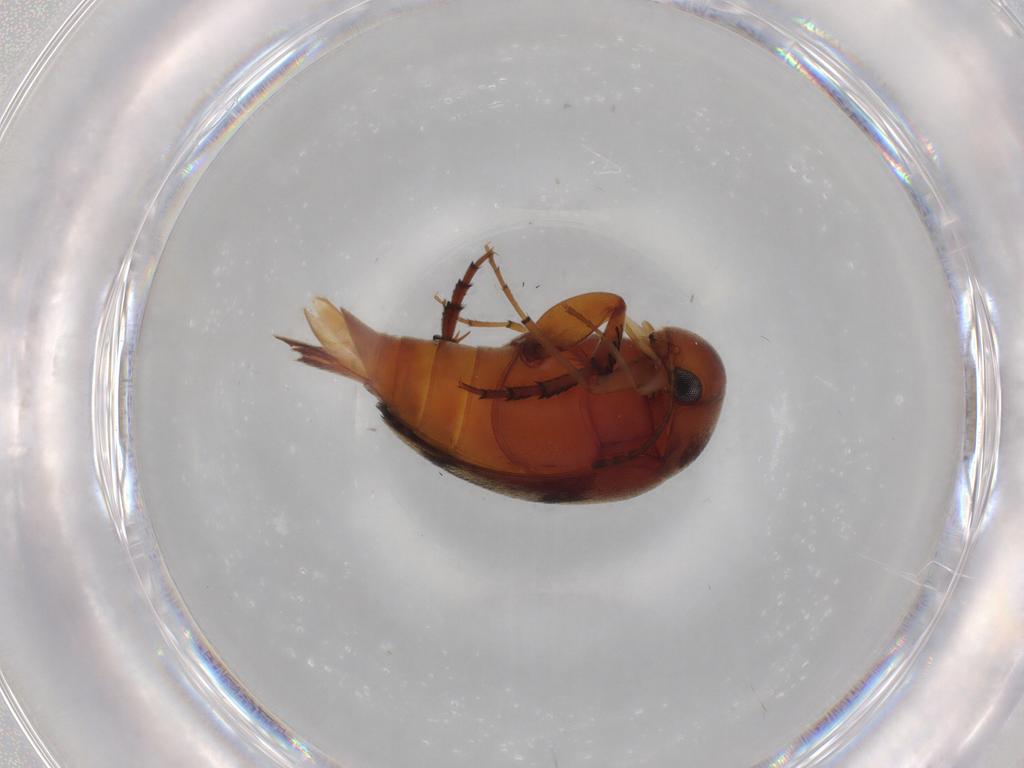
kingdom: Animalia
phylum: Arthropoda
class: Insecta
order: Coleoptera
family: Mordellidae
